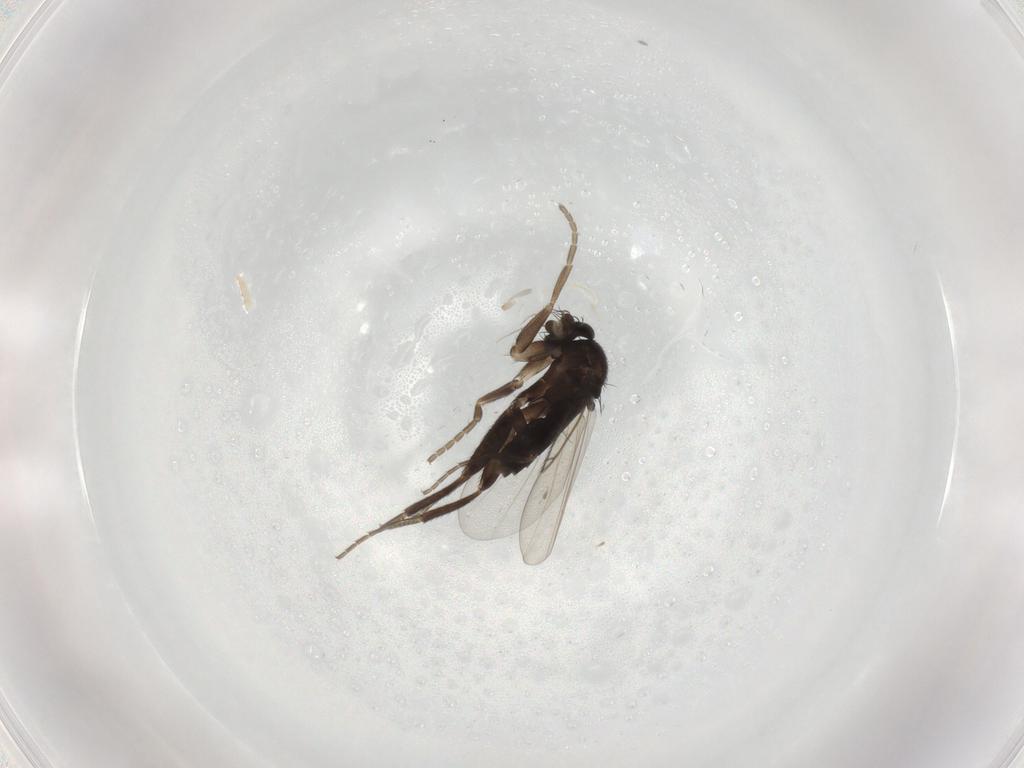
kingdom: Animalia
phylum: Arthropoda
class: Insecta
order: Diptera
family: Phoridae
